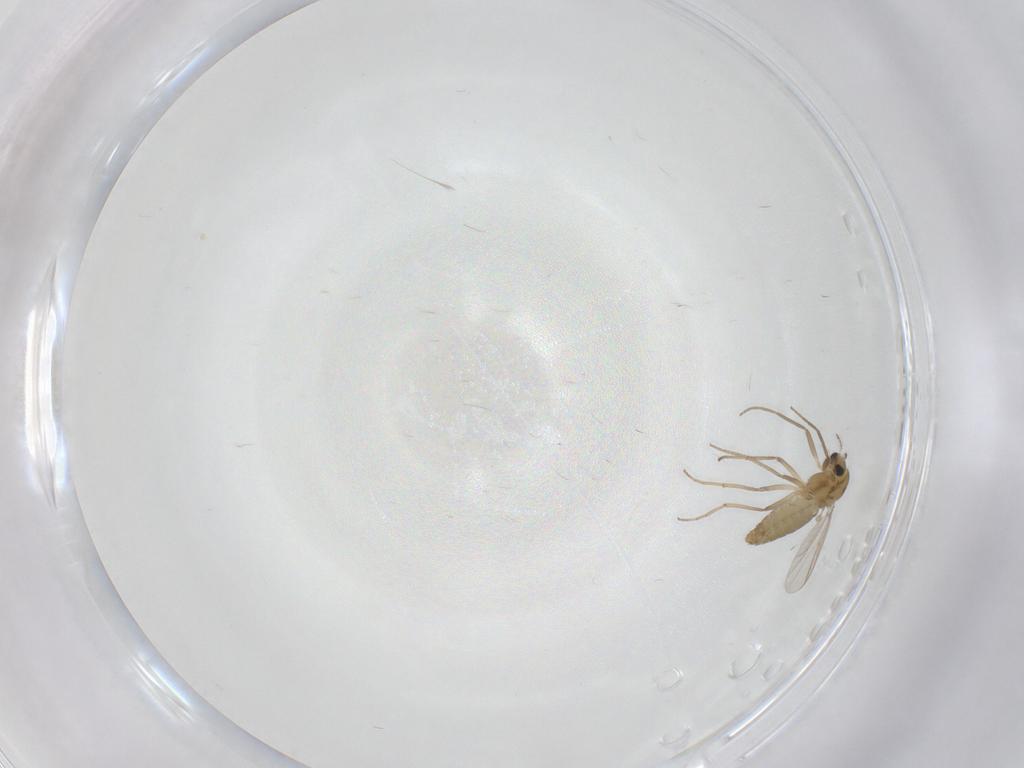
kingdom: Animalia
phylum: Arthropoda
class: Insecta
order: Diptera
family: Chironomidae
